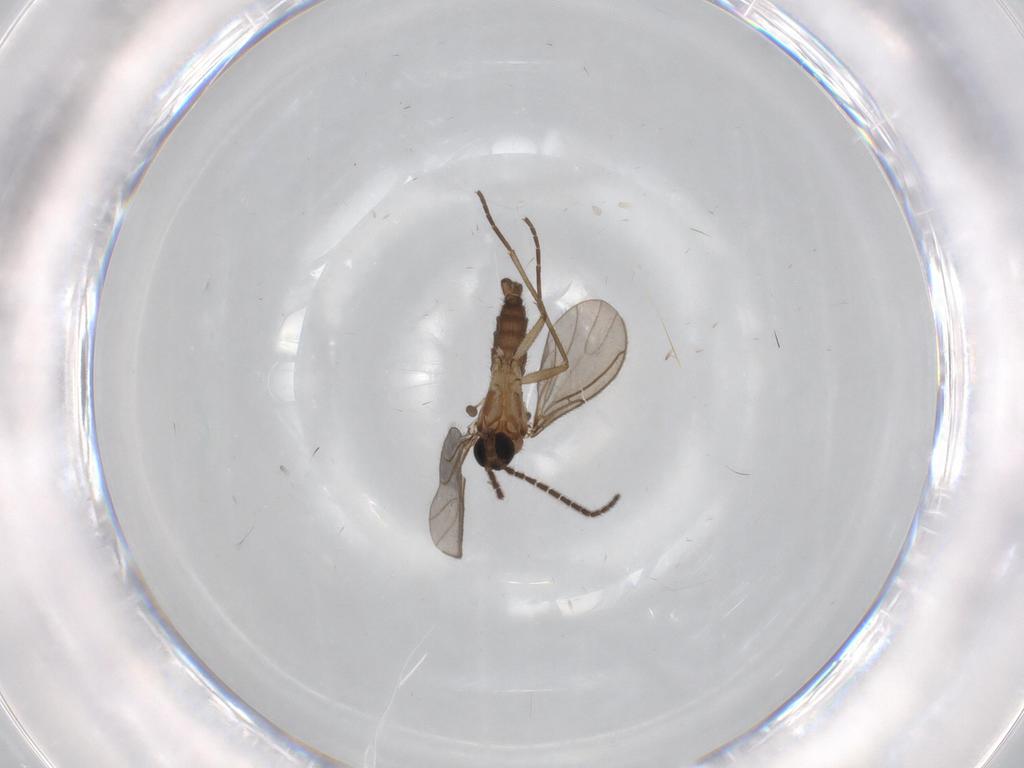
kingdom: Animalia
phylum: Arthropoda
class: Insecta
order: Diptera
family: Sciaridae
